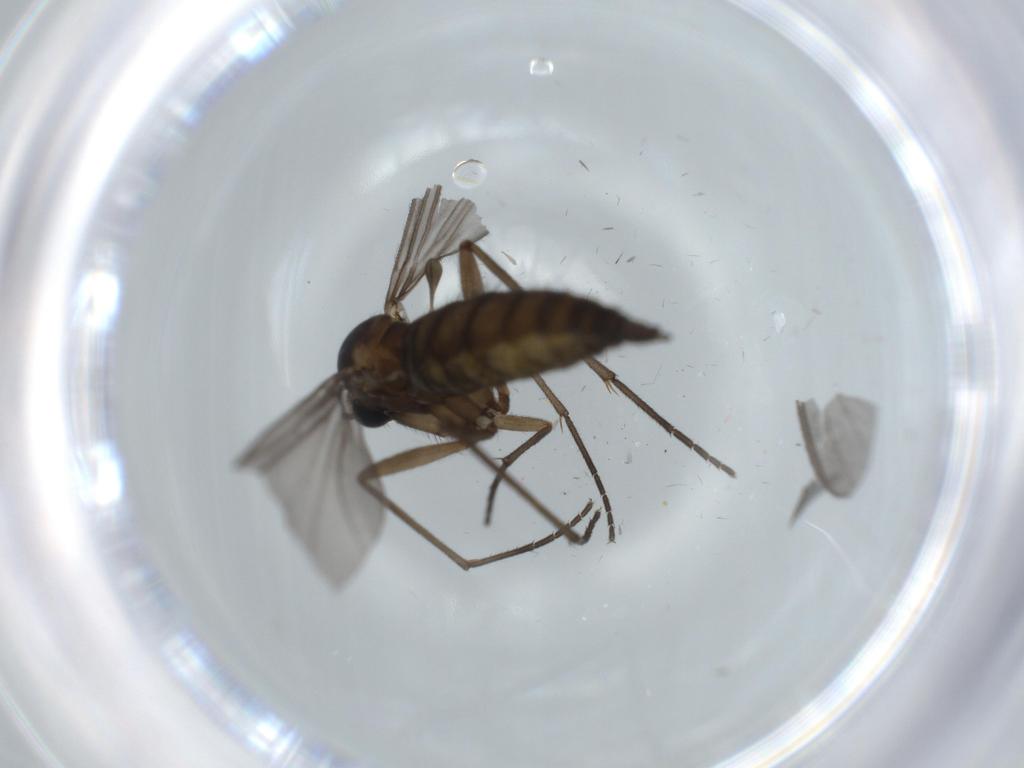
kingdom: Animalia
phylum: Arthropoda
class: Insecta
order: Diptera
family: Sciaridae
